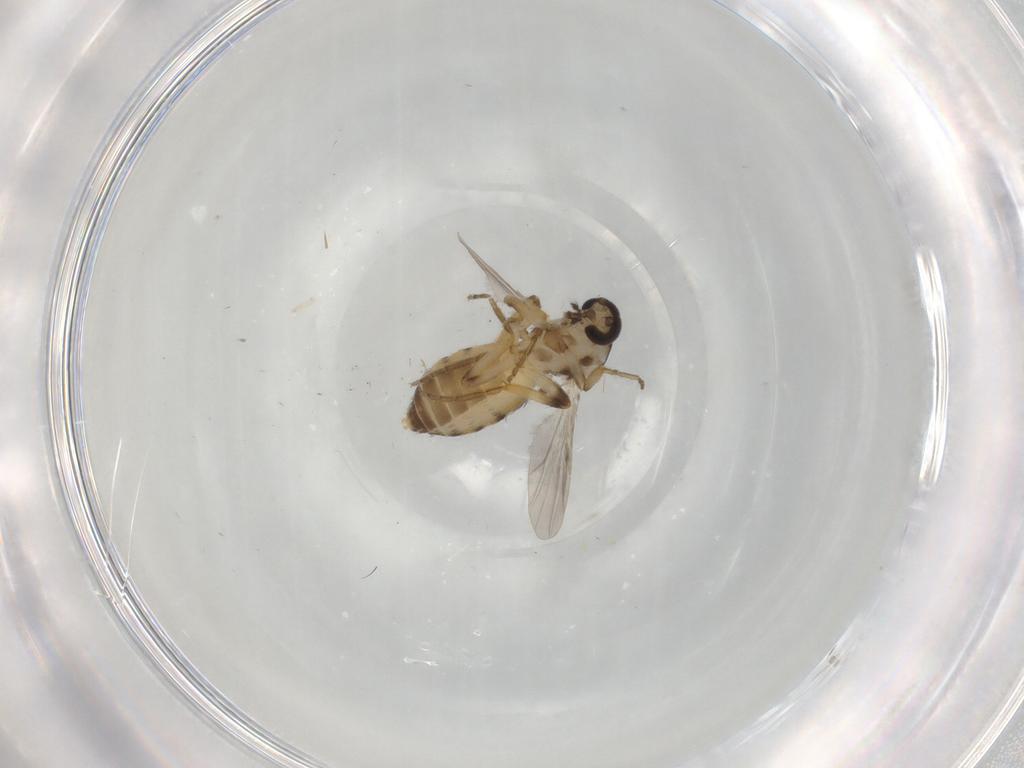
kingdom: Animalia
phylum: Arthropoda
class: Insecta
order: Diptera
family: Ceratopogonidae
